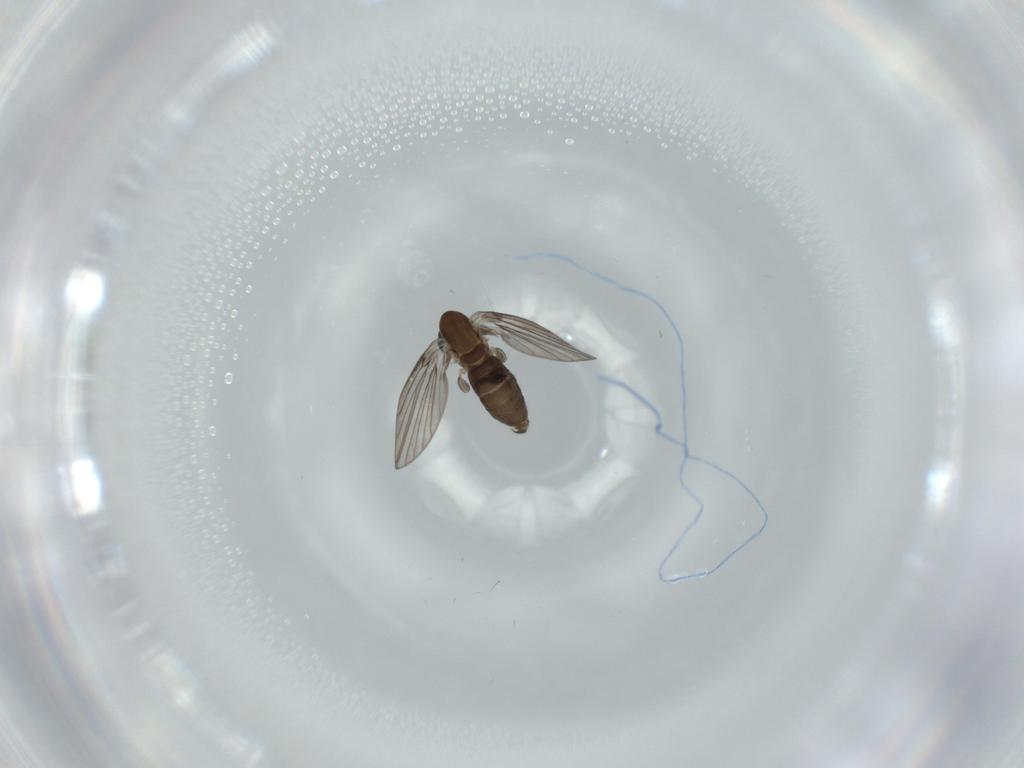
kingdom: Animalia
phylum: Arthropoda
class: Insecta
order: Diptera
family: Psychodidae
